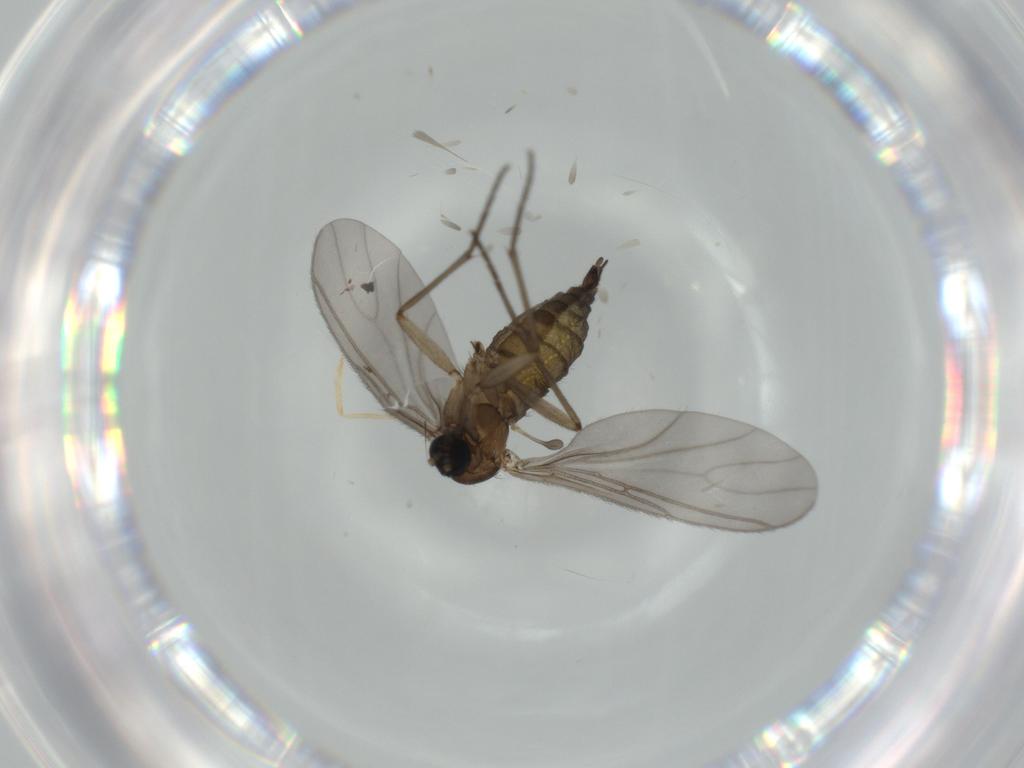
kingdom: Animalia
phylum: Arthropoda
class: Insecta
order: Diptera
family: Sciaridae
